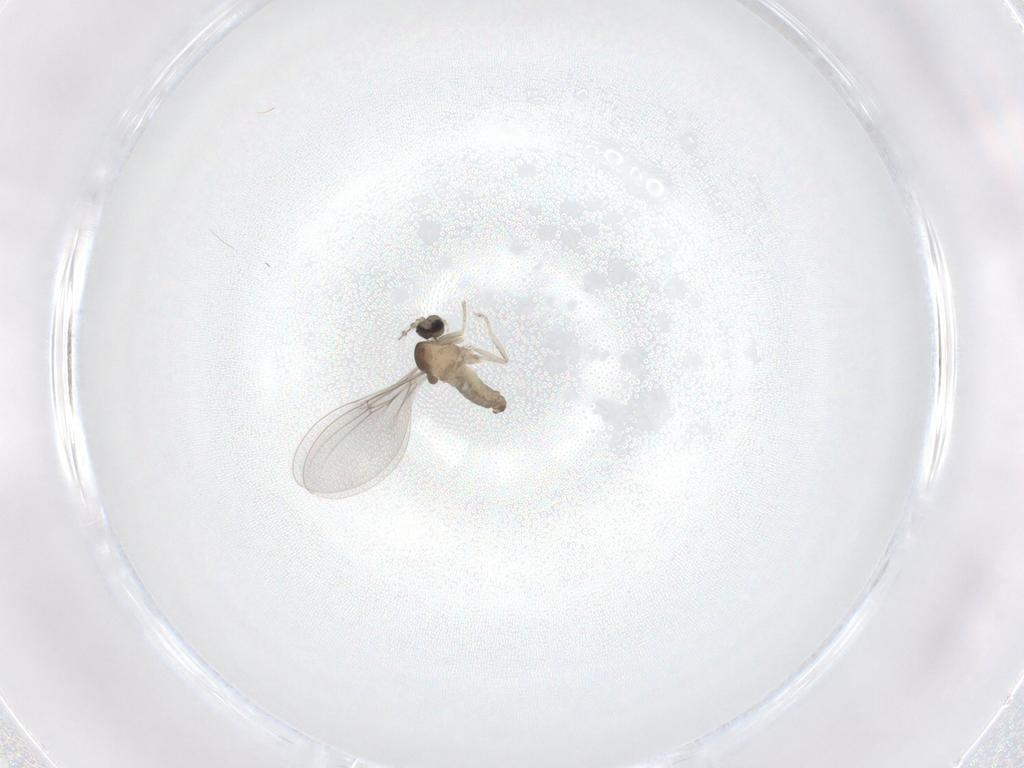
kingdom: Animalia
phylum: Arthropoda
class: Insecta
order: Diptera
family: Cecidomyiidae
